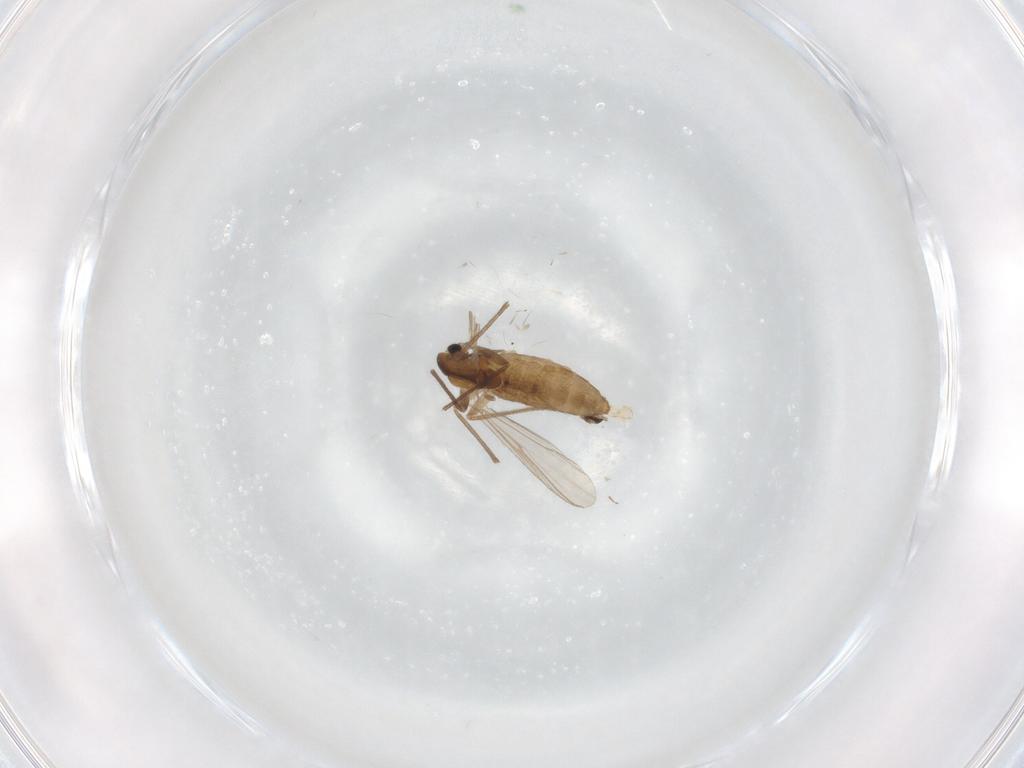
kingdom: Animalia
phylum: Arthropoda
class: Insecta
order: Diptera
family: Chironomidae
